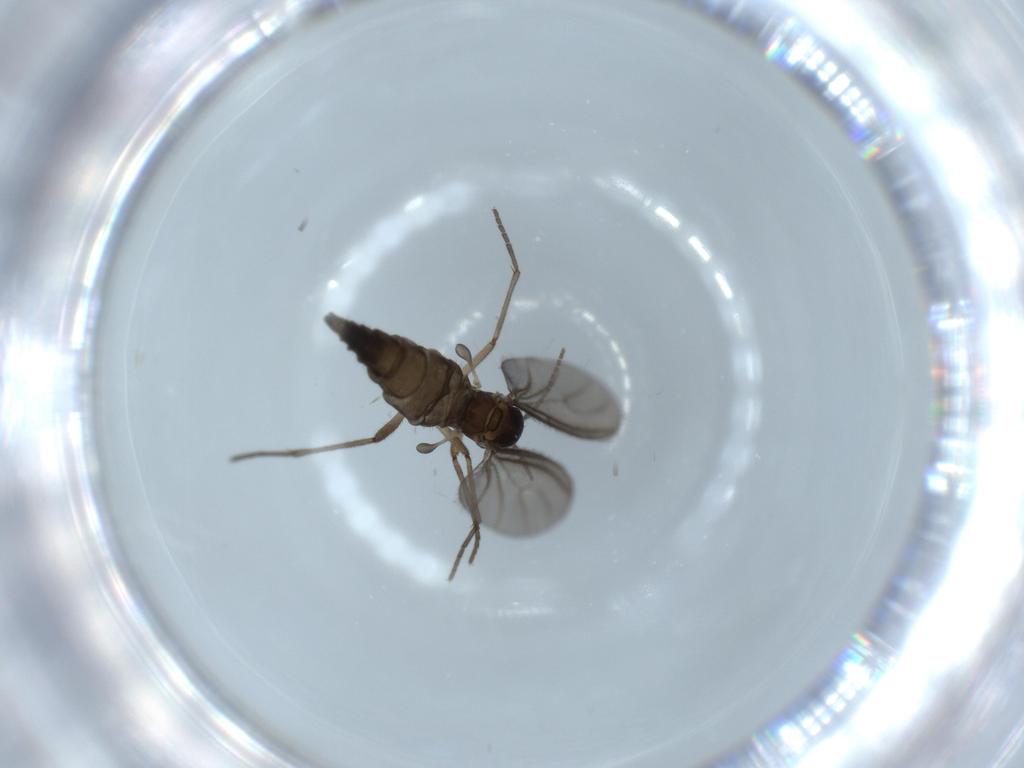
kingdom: Animalia
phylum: Arthropoda
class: Insecta
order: Diptera
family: Sciaridae
